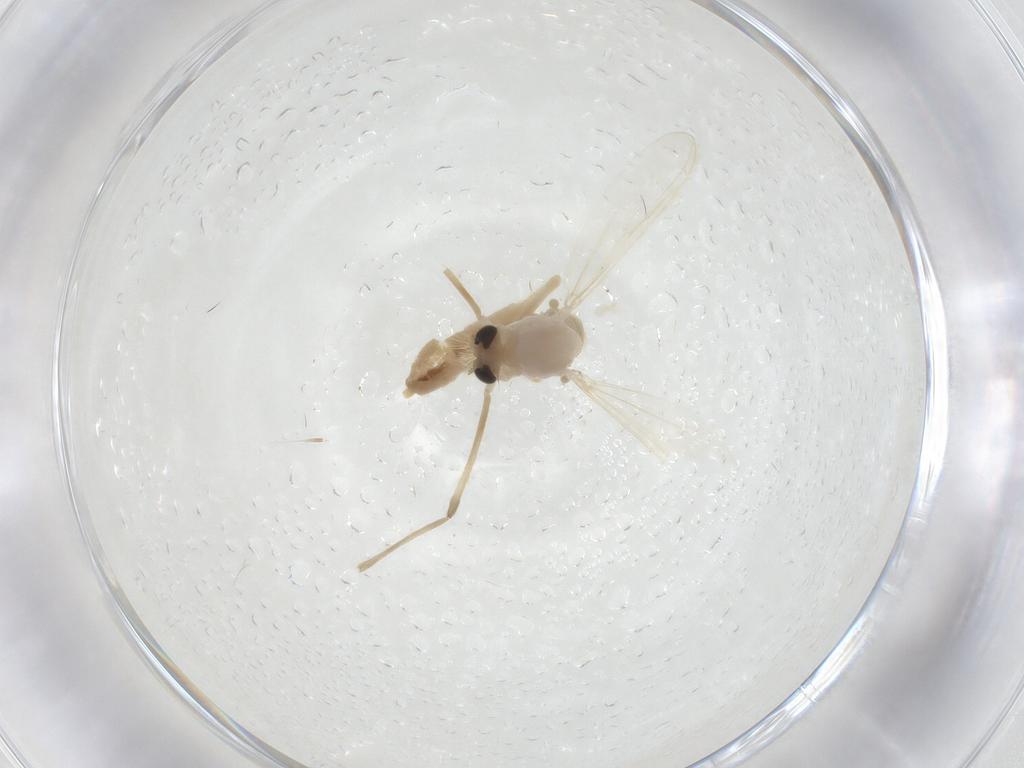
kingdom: Animalia
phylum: Arthropoda
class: Insecta
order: Diptera
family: Chironomidae
